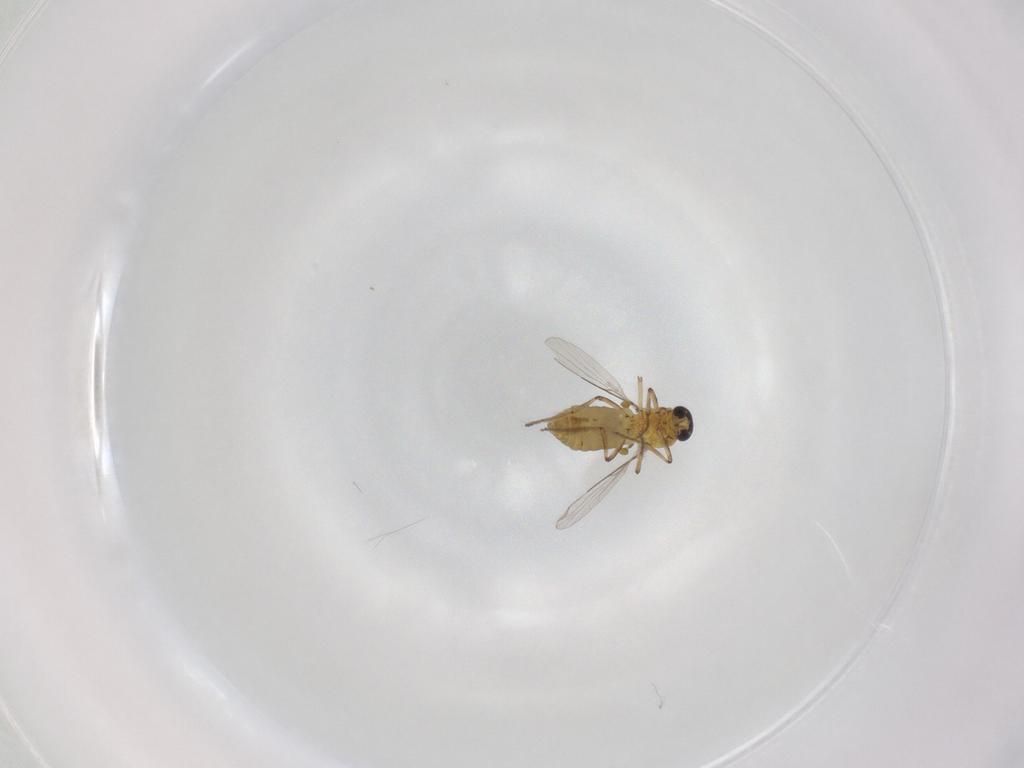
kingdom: Animalia
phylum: Arthropoda
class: Insecta
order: Diptera
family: Ceratopogonidae
